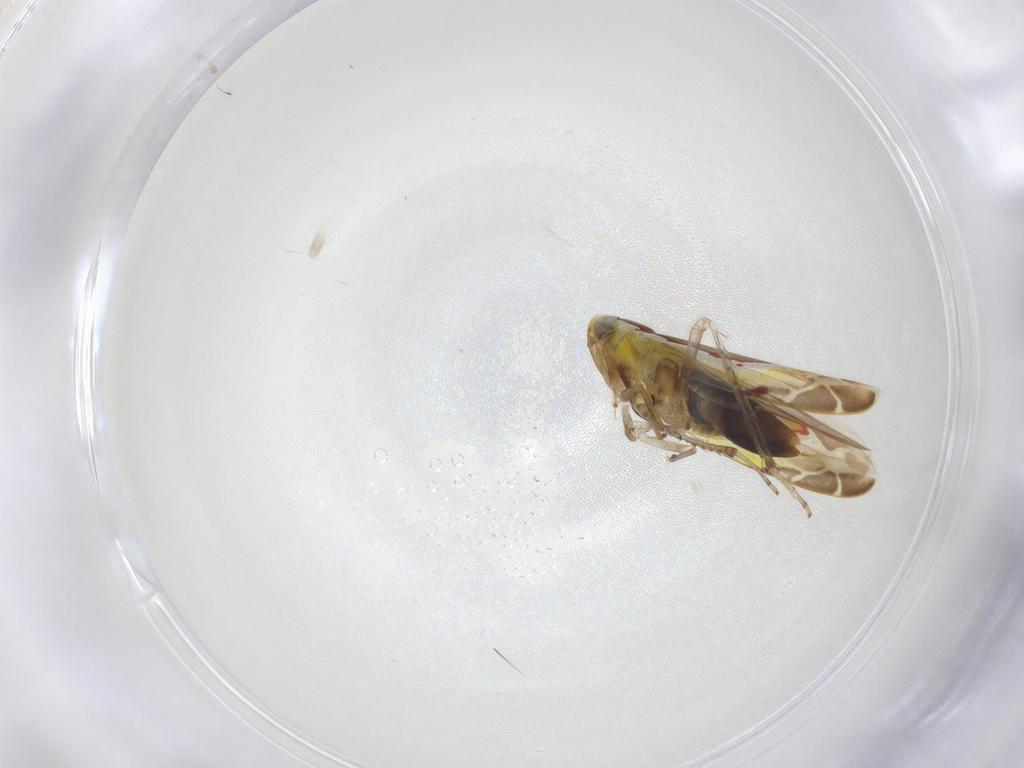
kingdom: Animalia
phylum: Arthropoda
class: Insecta
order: Hemiptera
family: Cicadellidae
